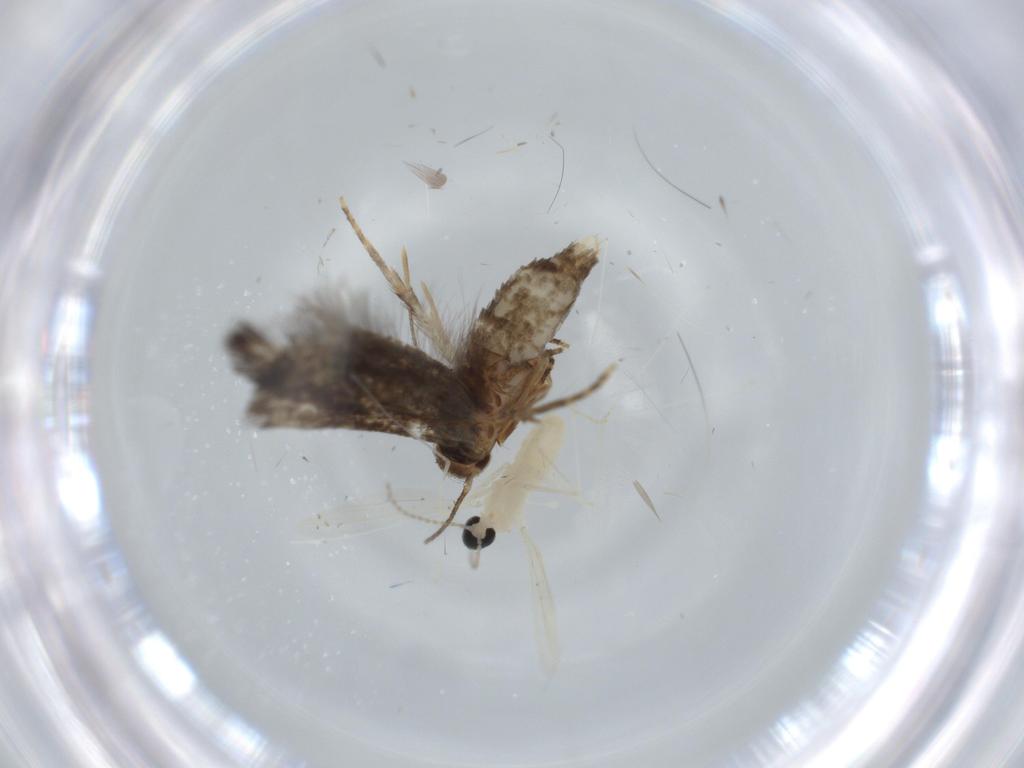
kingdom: Animalia
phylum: Arthropoda
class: Insecta
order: Diptera
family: Cecidomyiidae
